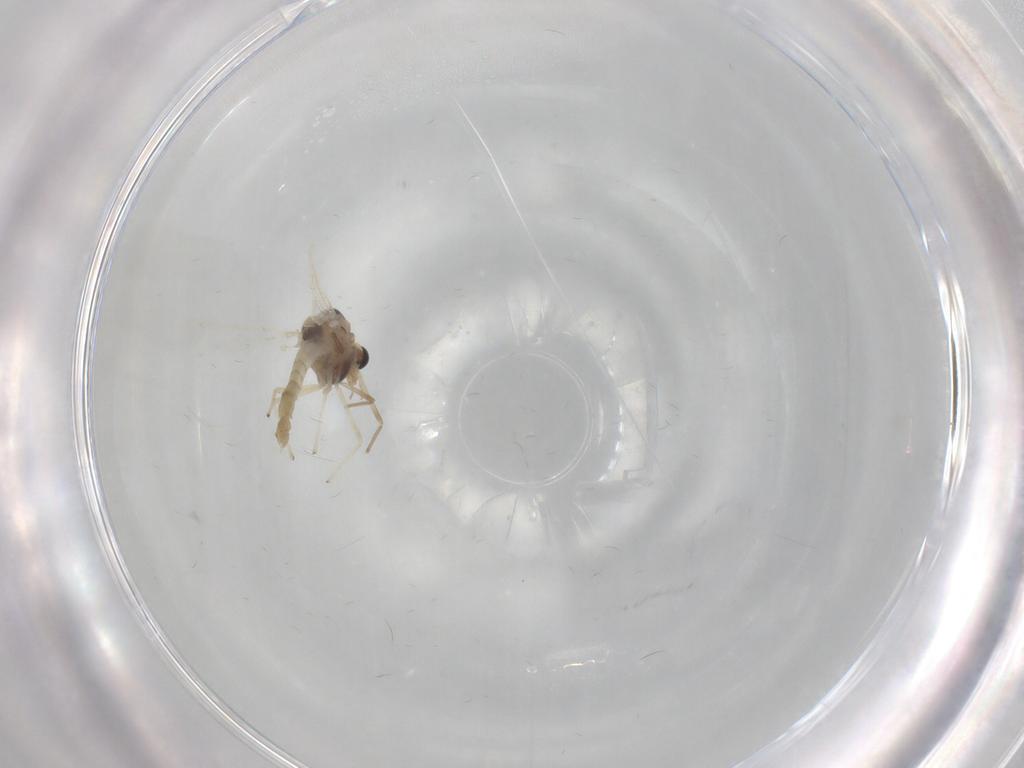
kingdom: Animalia
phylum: Arthropoda
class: Insecta
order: Diptera
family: Chironomidae
